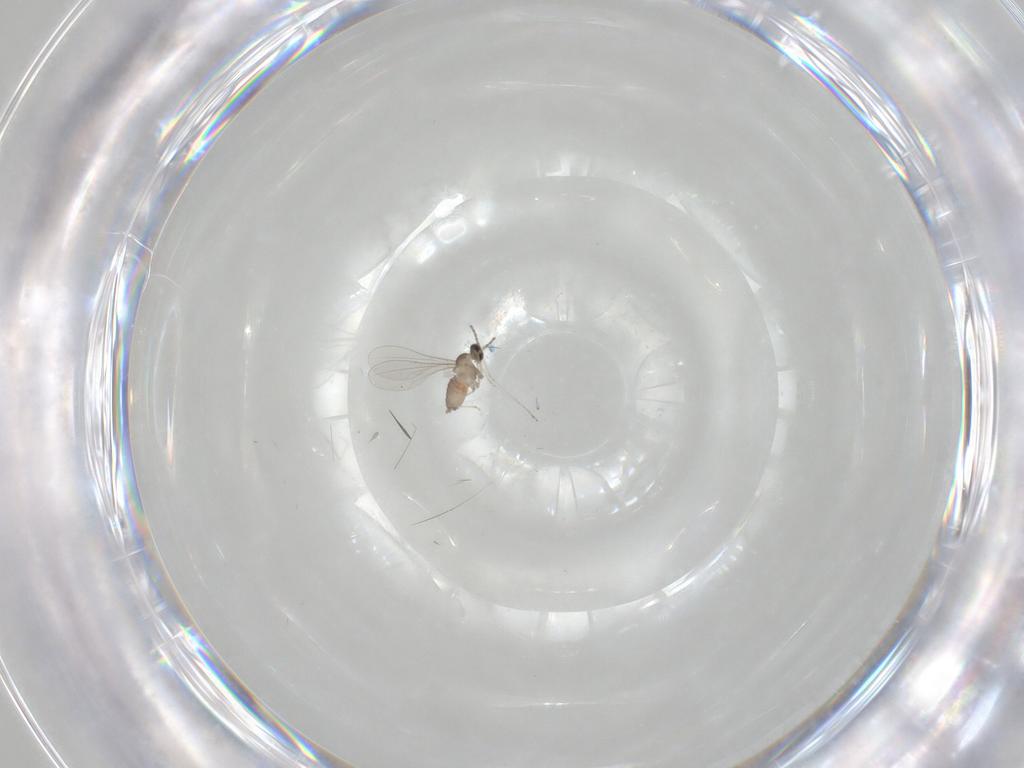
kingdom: Animalia
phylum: Arthropoda
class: Insecta
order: Diptera
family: Cecidomyiidae
